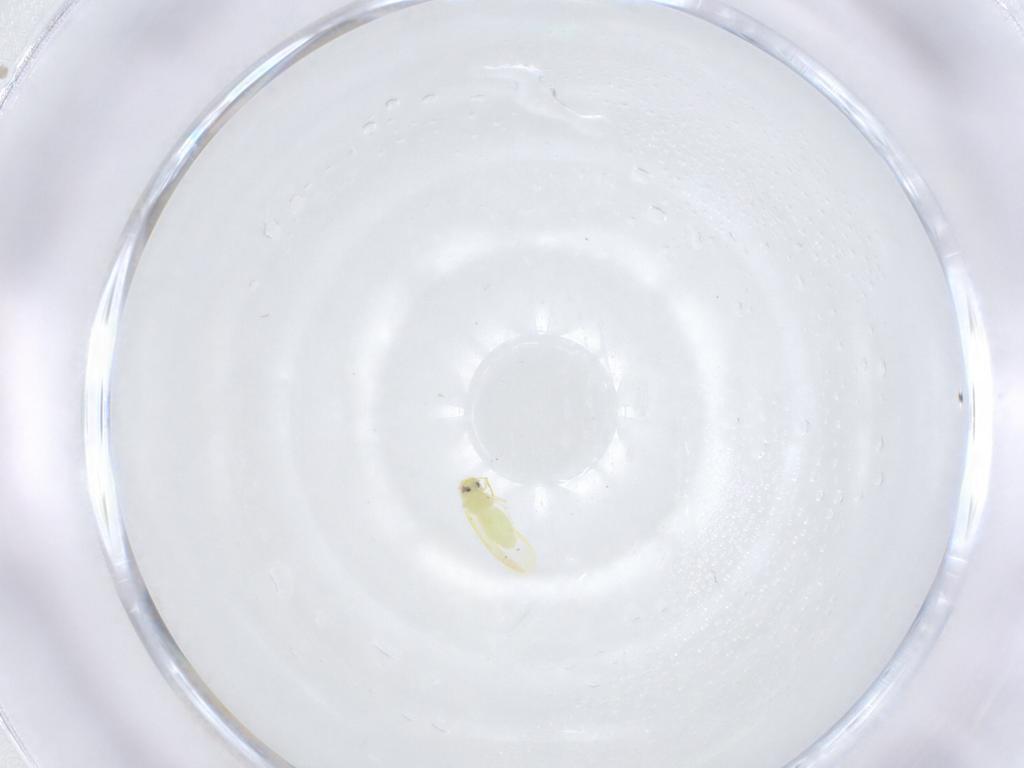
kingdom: Animalia
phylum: Arthropoda
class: Insecta
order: Hemiptera
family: Aleyrodidae
